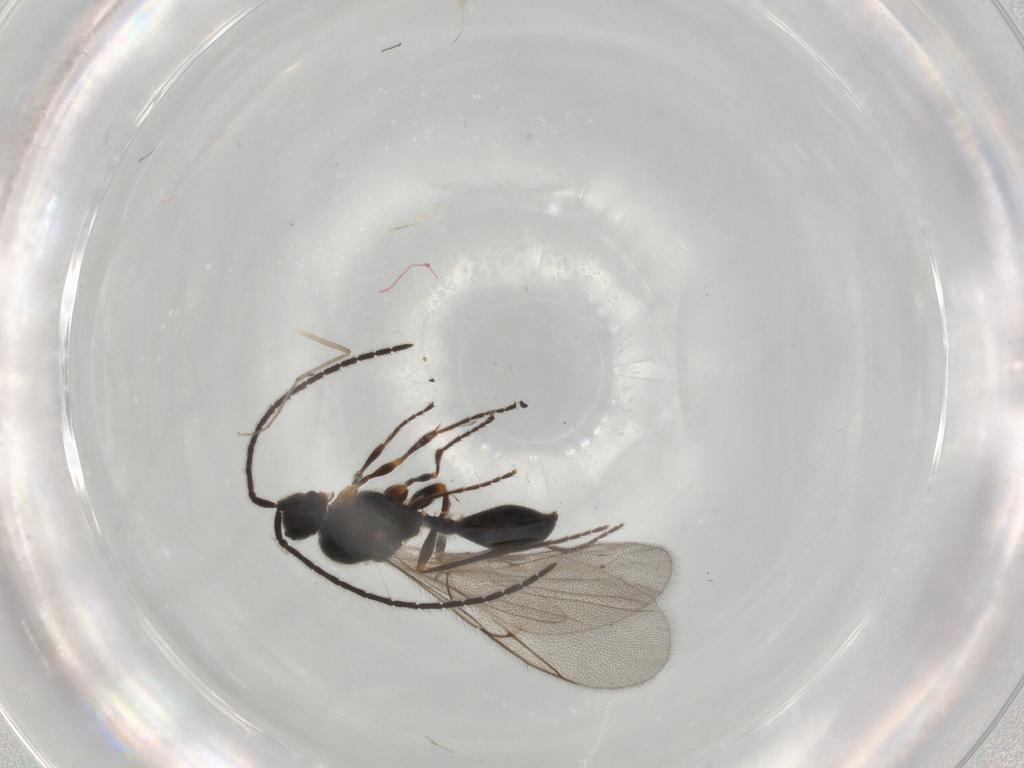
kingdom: Animalia
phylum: Arthropoda
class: Insecta
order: Hymenoptera
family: Diapriidae
